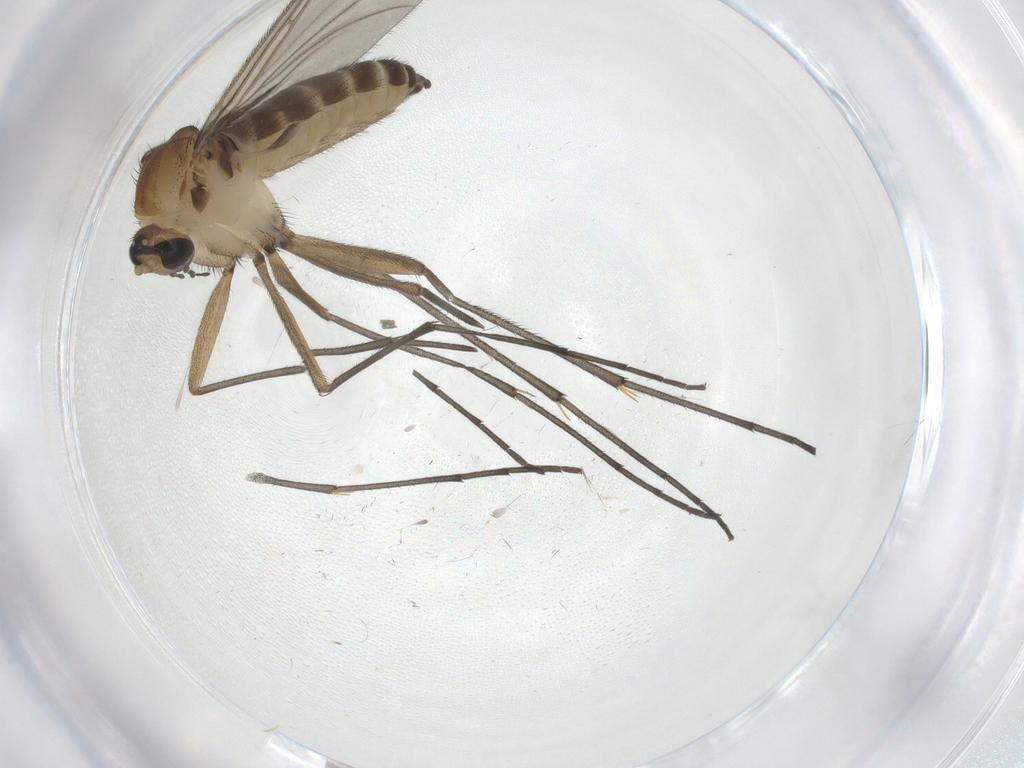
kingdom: Animalia
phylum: Arthropoda
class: Insecta
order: Diptera
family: Sciaridae
